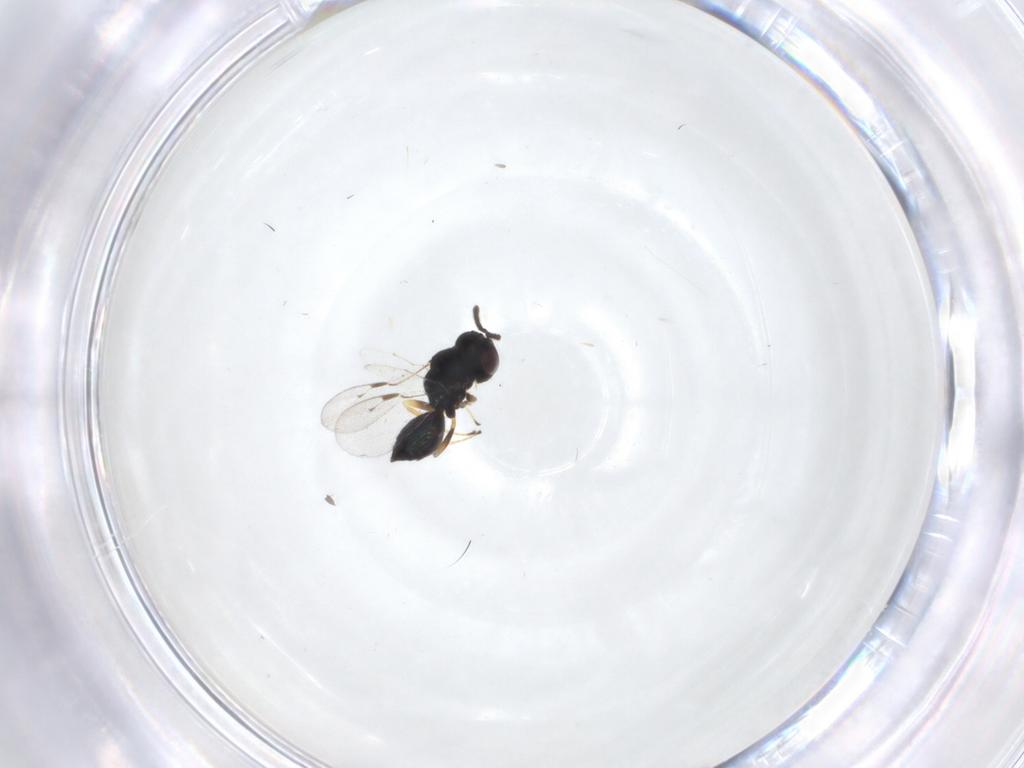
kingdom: Animalia
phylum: Arthropoda
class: Insecta
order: Hymenoptera
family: Pteromalidae
